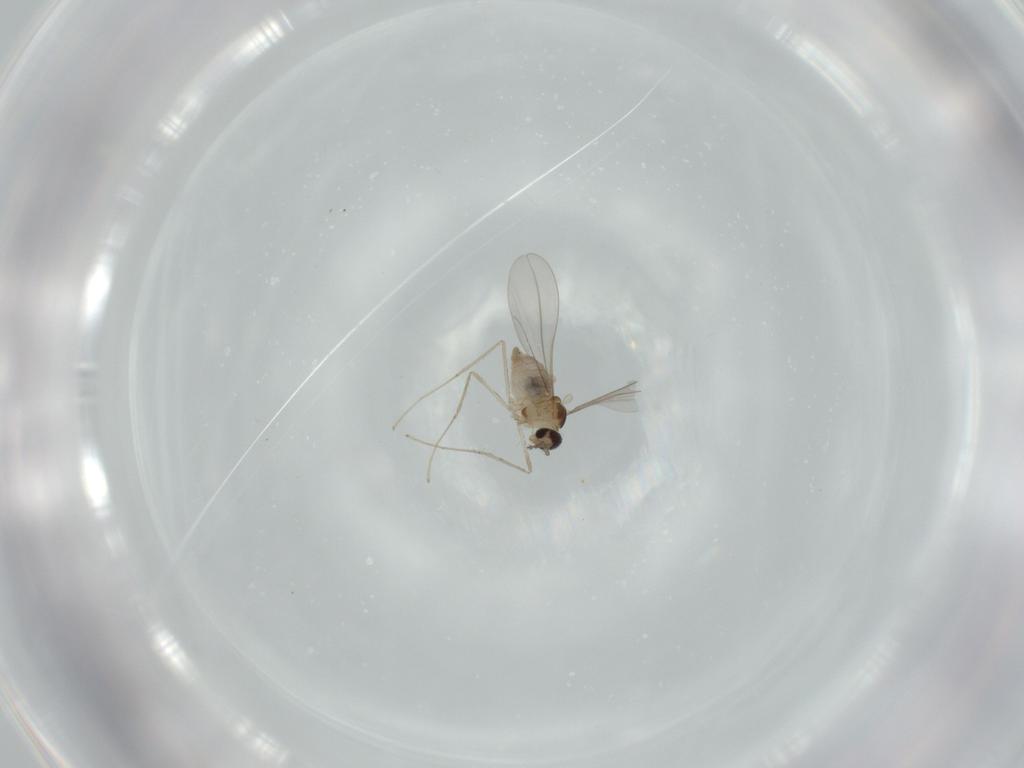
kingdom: Animalia
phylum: Arthropoda
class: Insecta
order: Diptera
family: Cecidomyiidae
